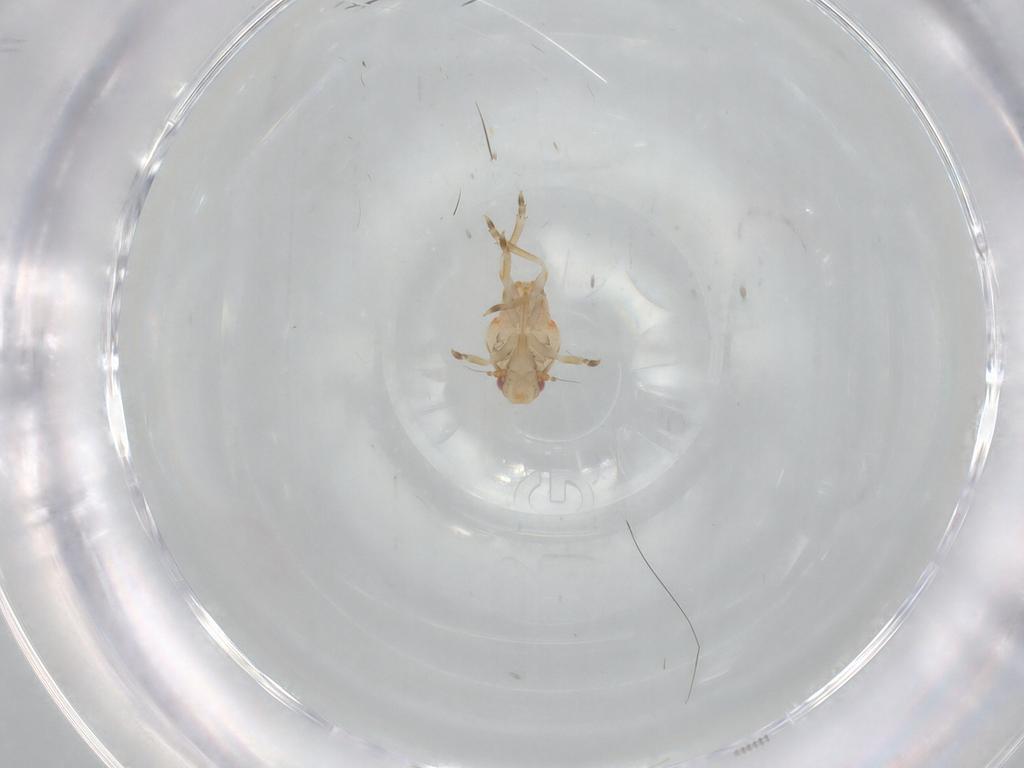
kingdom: Animalia
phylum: Arthropoda
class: Insecta
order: Hemiptera
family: Flatidae
